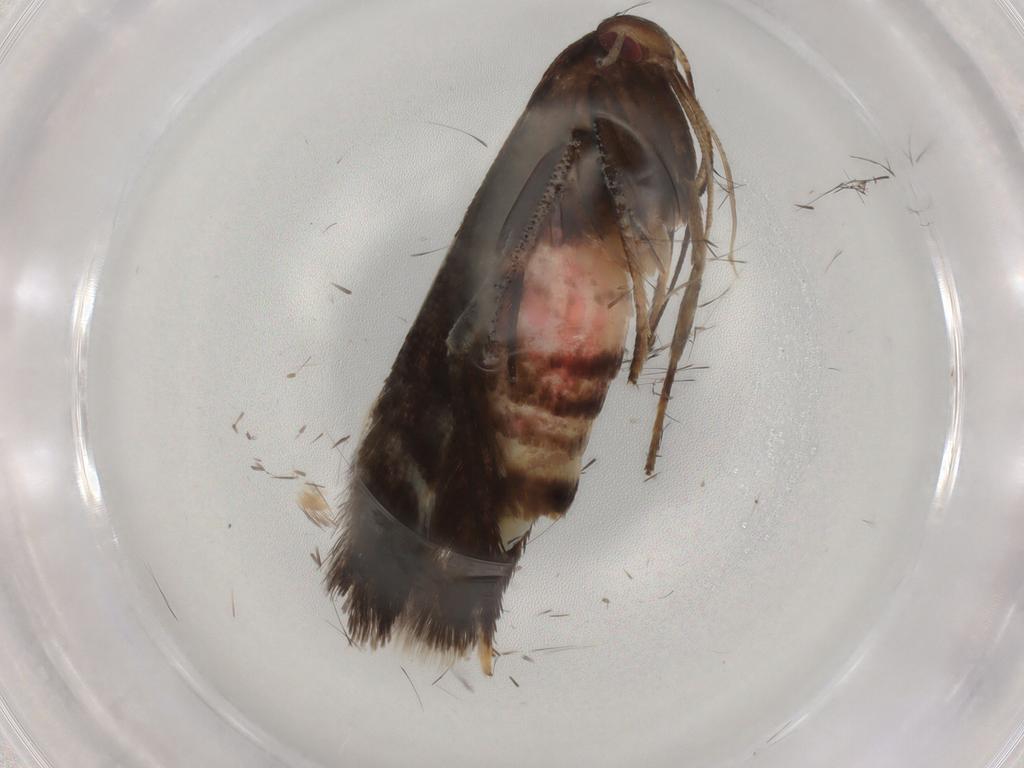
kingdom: Animalia
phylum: Arthropoda
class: Insecta
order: Lepidoptera
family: Cosmopterigidae
